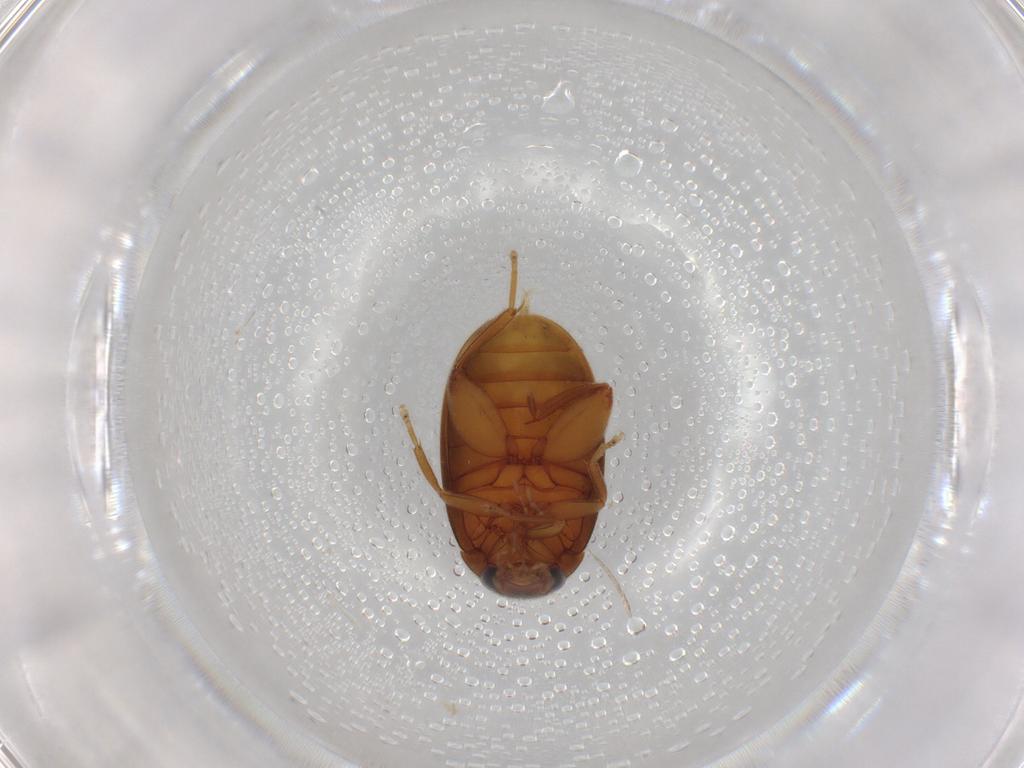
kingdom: Animalia
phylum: Arthropoda
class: Insecta
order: Coleoptera
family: Scirtidae
